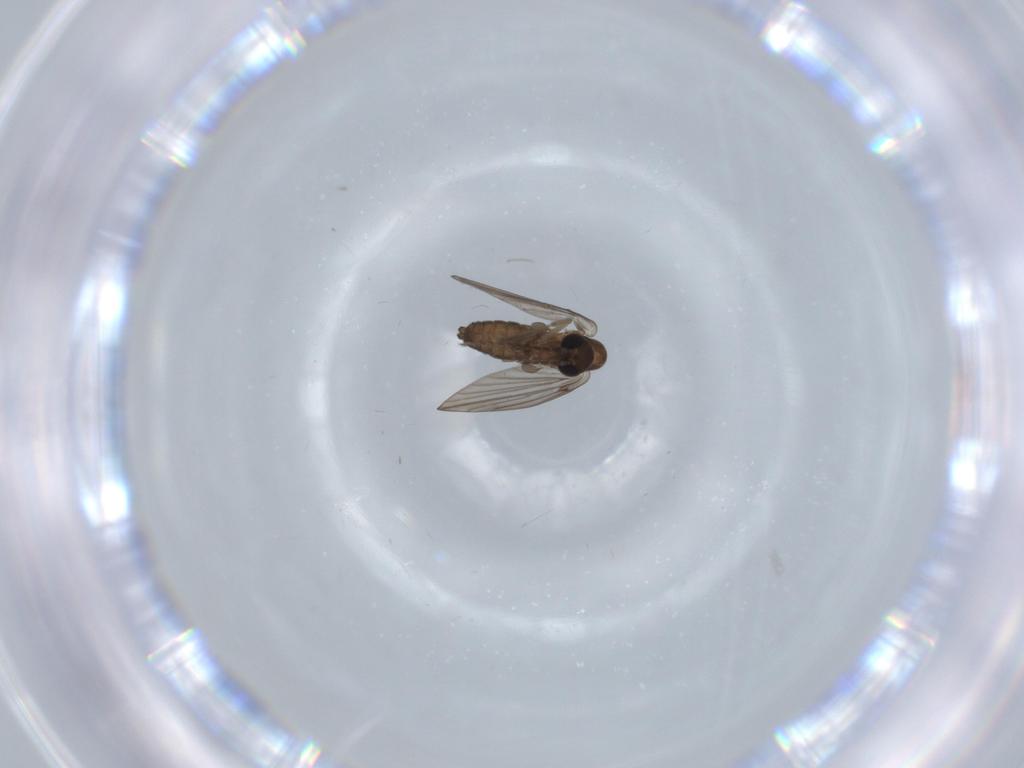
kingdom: Animalia
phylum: Arthropoda
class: Insecta
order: Diptera
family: Psychodidae
